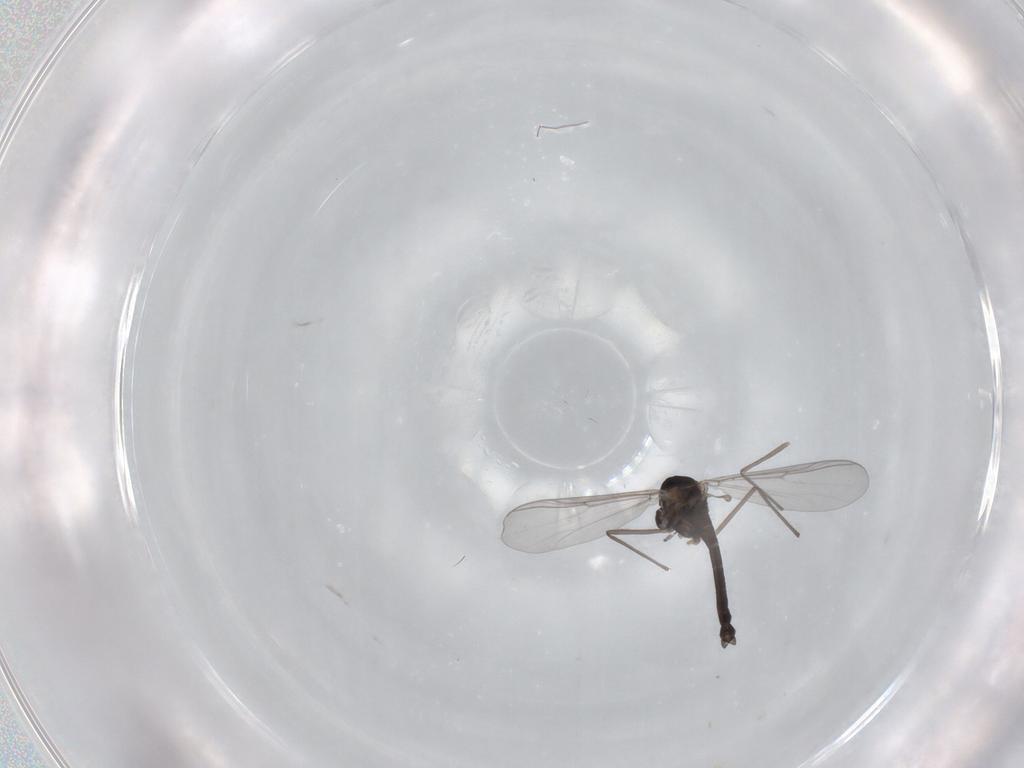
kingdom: Animalia
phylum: Arthropoda
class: Insecta
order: Diptera
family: Chironomidae
